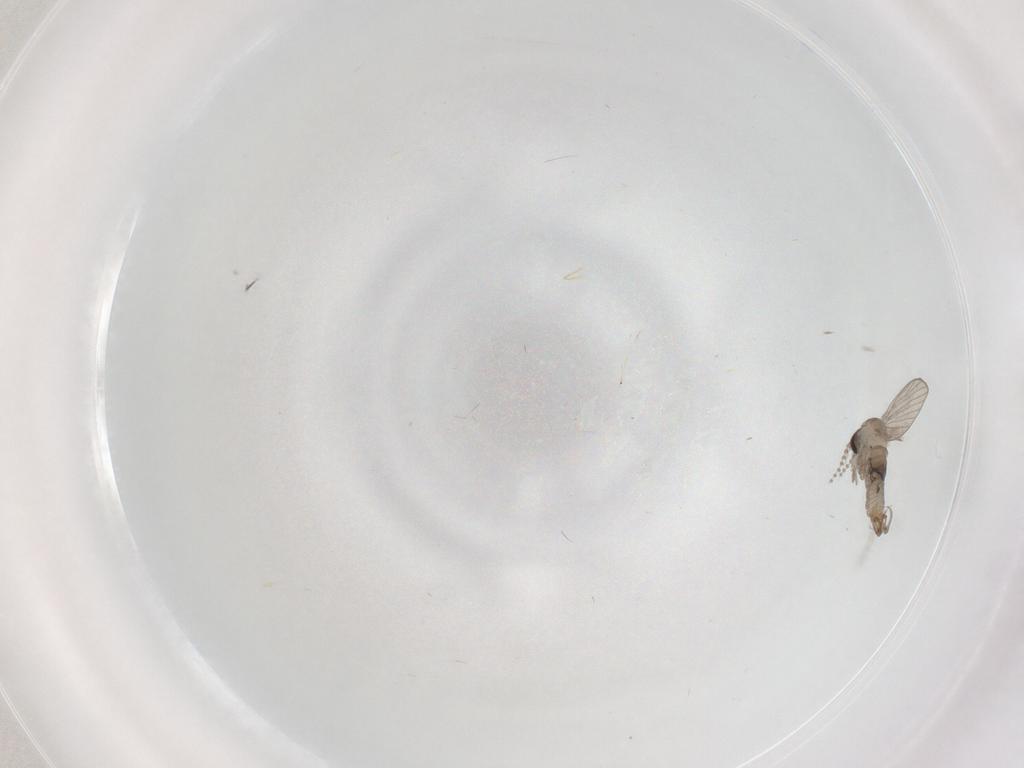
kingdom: Animalia
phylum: Arthropoda
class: Insecta
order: Diptera
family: Psychodidae
